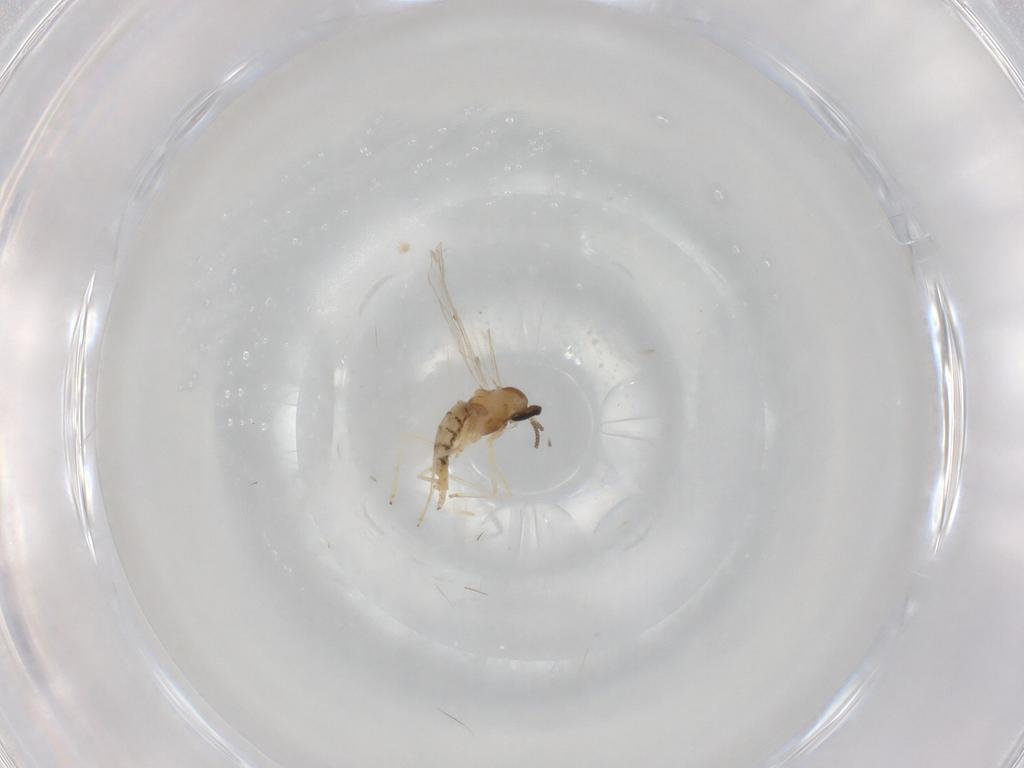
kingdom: Animalia
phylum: Arthropoda
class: Insecta
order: Diptera
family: Cecidomyiidae
